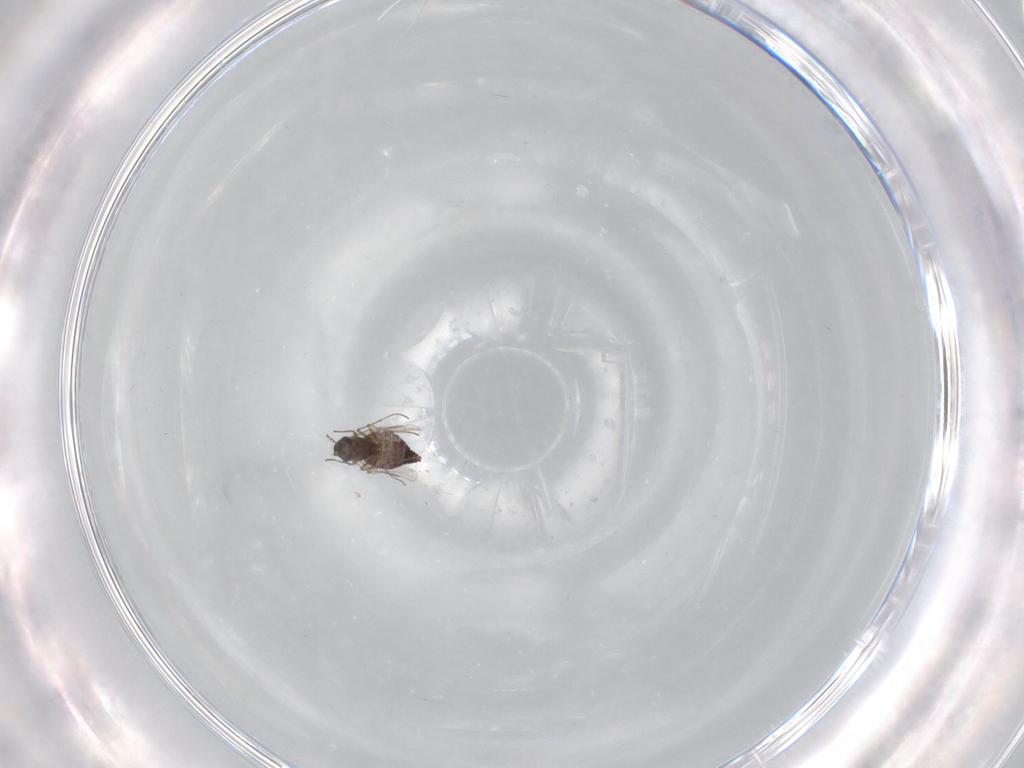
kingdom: Animalia
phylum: Arthropoda
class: Insecta
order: Diptera
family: Chironomidae
